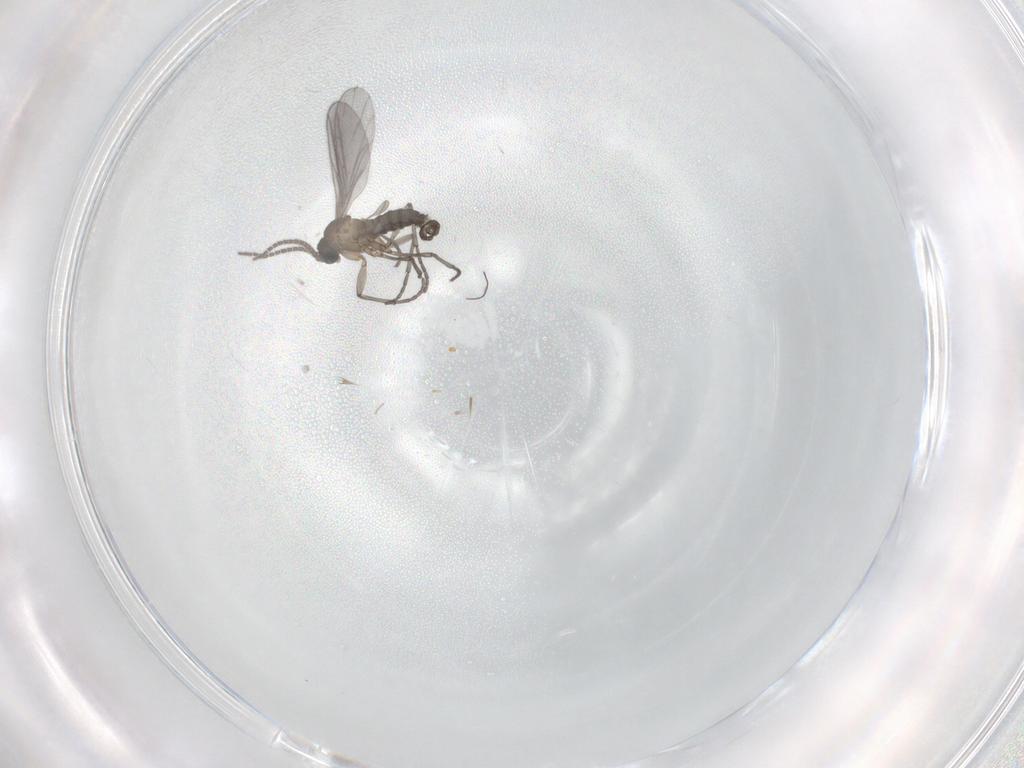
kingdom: Animalia
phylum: Arthropoda
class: Insecta
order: Diptera
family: Sciaridae
